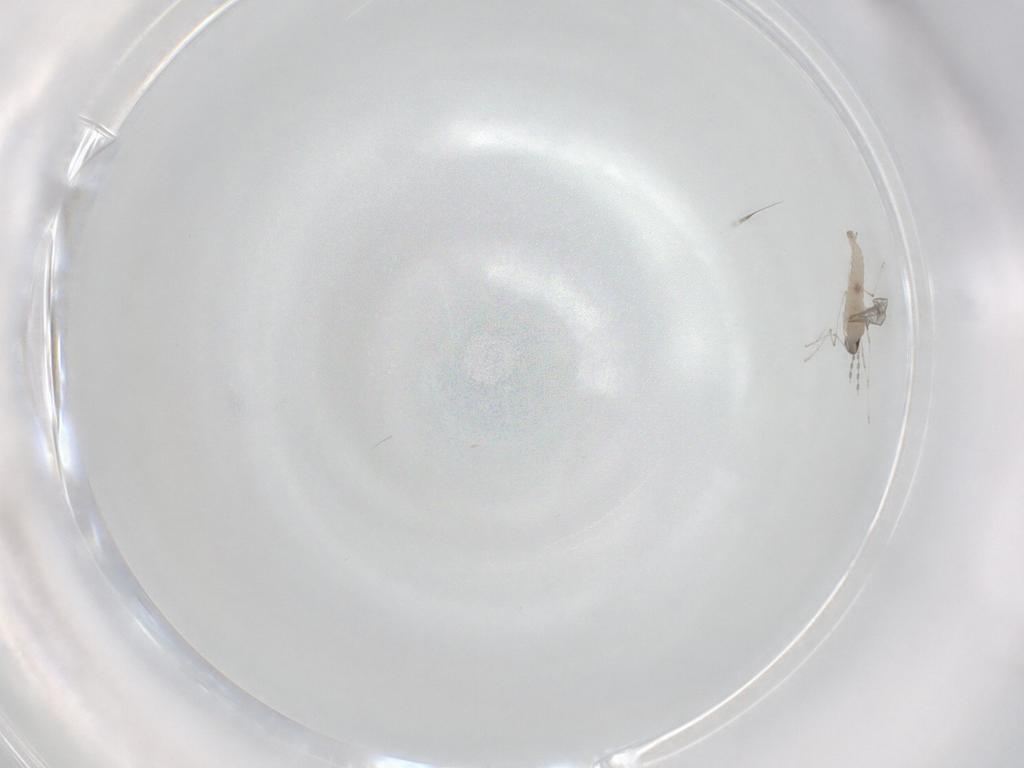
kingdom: Animalia
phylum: Arthropoda
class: Insecta
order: Diptera
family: Cecidomyiidae
